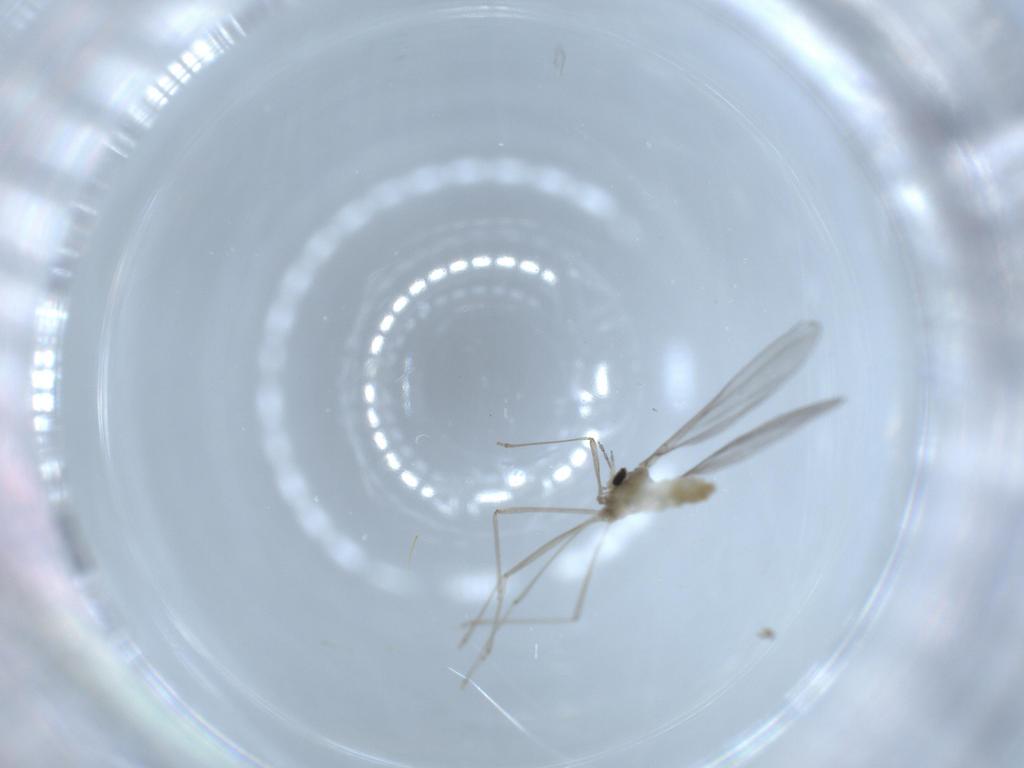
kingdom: Animalia
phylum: Arthropoda
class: Insecta
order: Diptera
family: Cecidomyiidae
